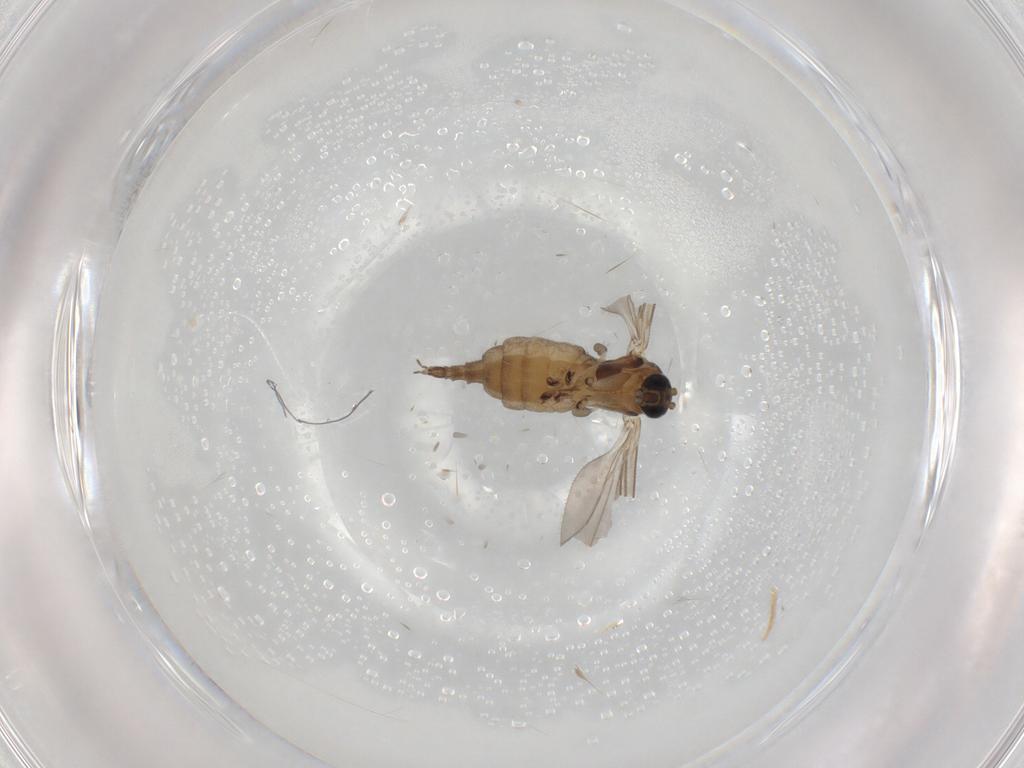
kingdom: Animalia
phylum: Arthropoda
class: Insecta
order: Diptera
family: Sciaridae
